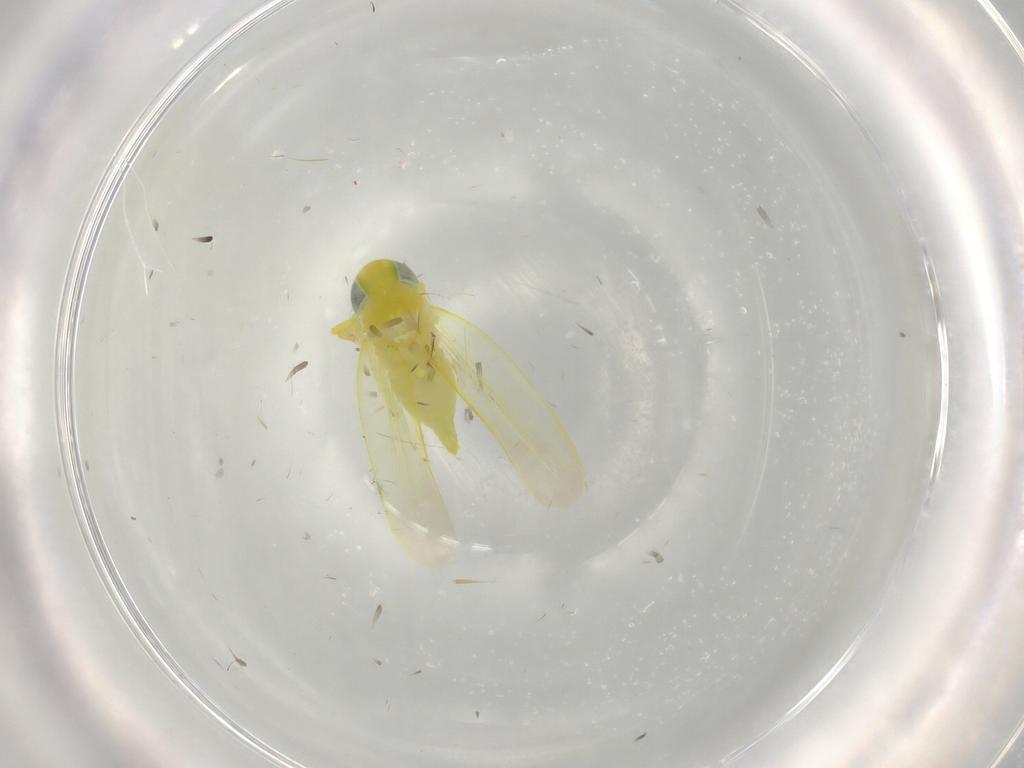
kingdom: Animalia
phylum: Arthropoda
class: Insecta
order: Hemiptera
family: Cicadellidae
